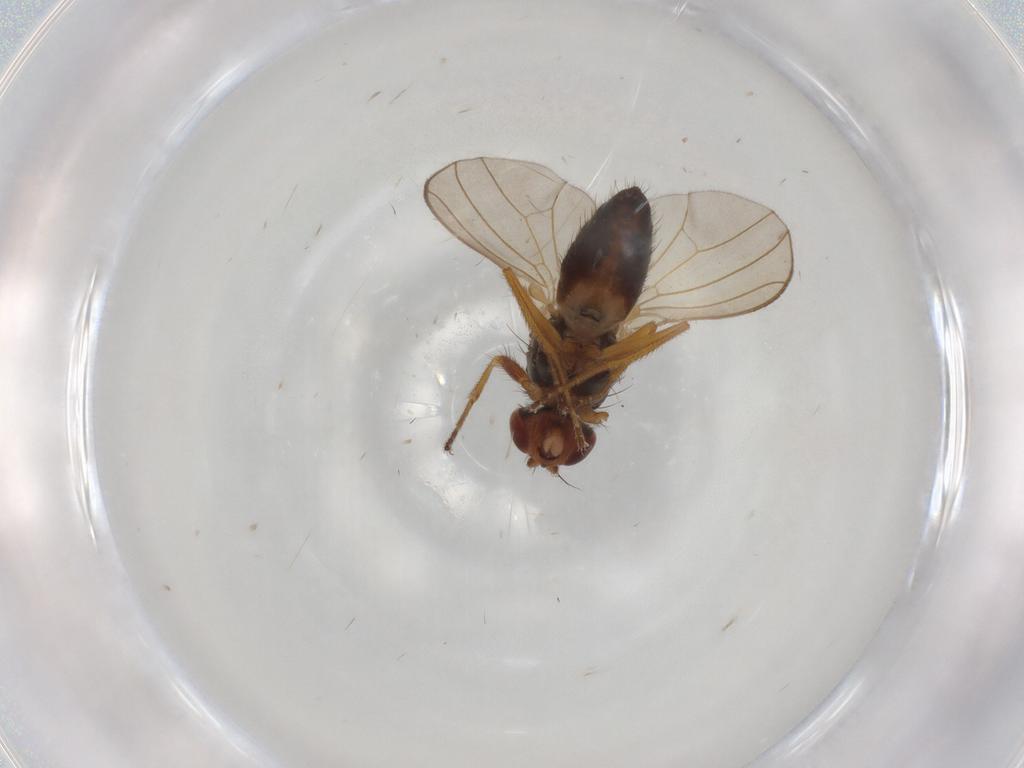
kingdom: Animalia
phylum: Arthropoda
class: Insecta
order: Diptera
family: Drosophilidae
